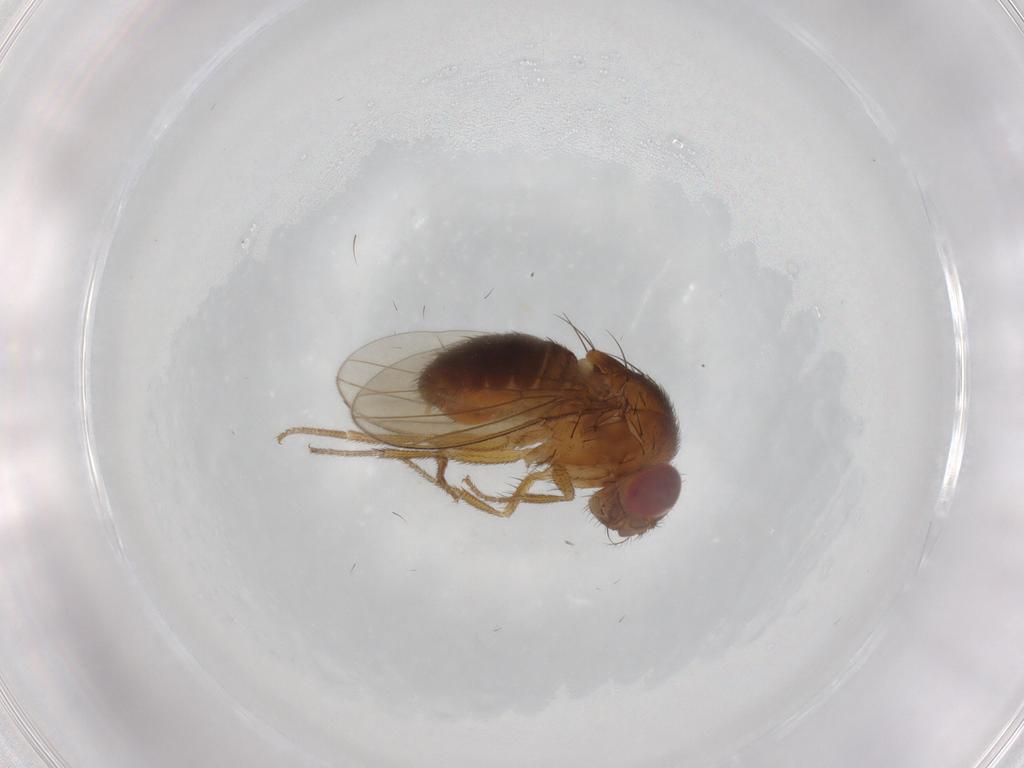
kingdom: Animalia
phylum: Arthropoda
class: Insecta
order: Diptera
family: Drosophilidae
